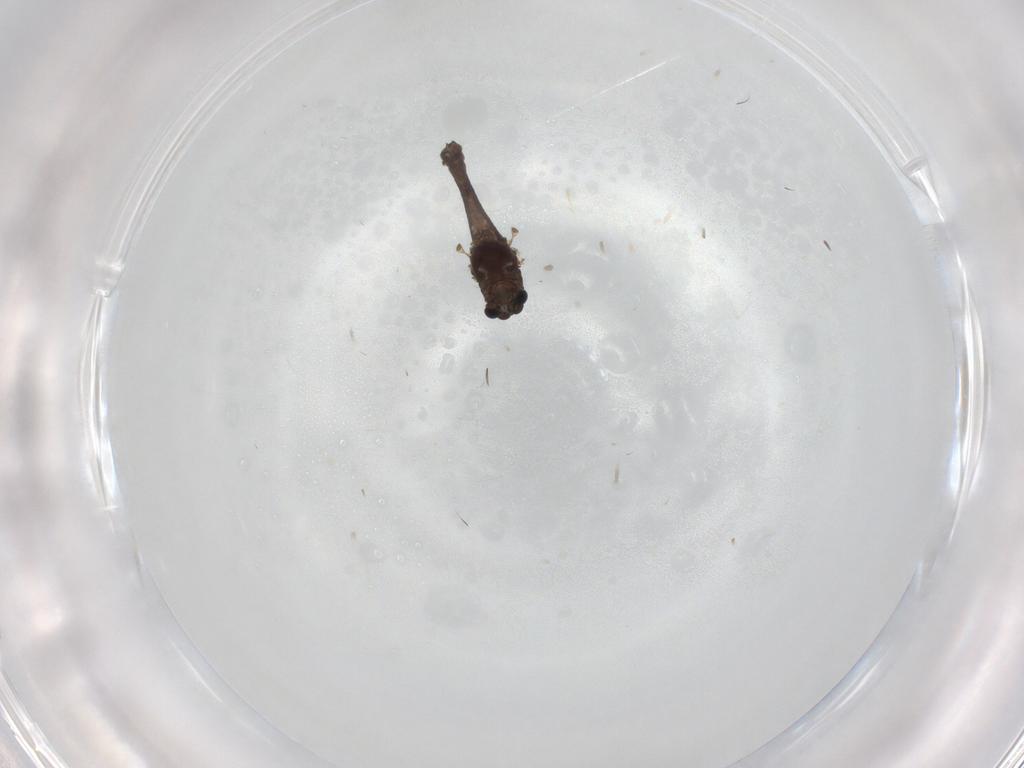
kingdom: Animalia
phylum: Arthropoda
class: Insecta
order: Diptera
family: Chironomidae
